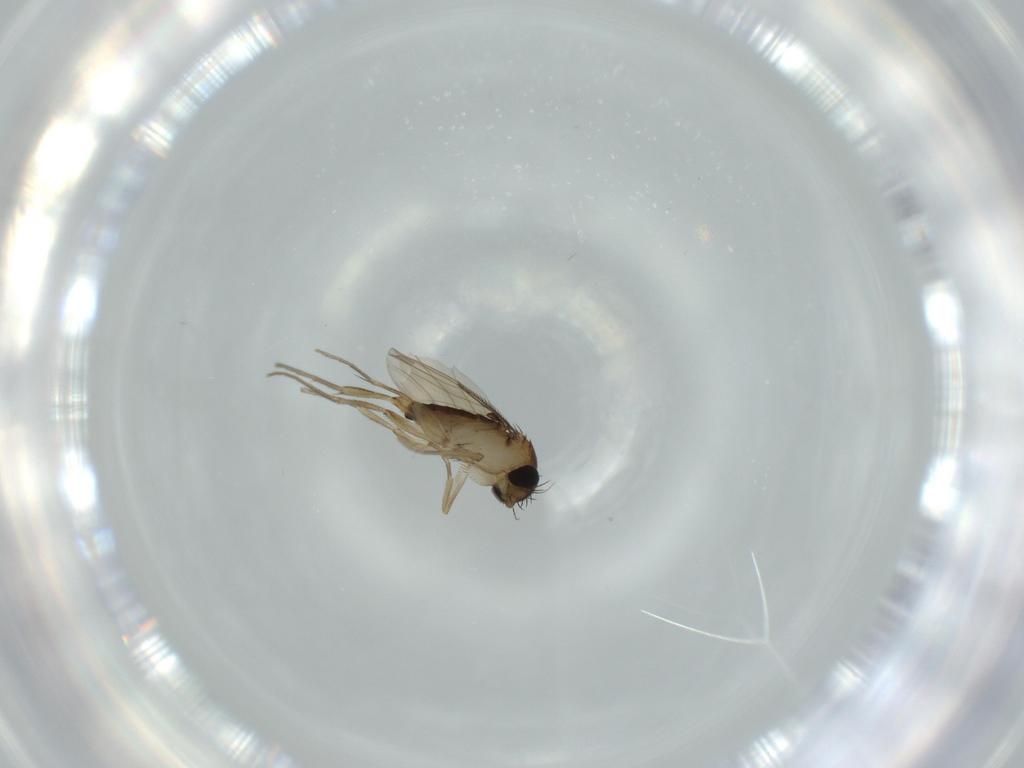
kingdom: Animalia
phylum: Arthropoda
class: Insecta
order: Diptera
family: Phoridae
